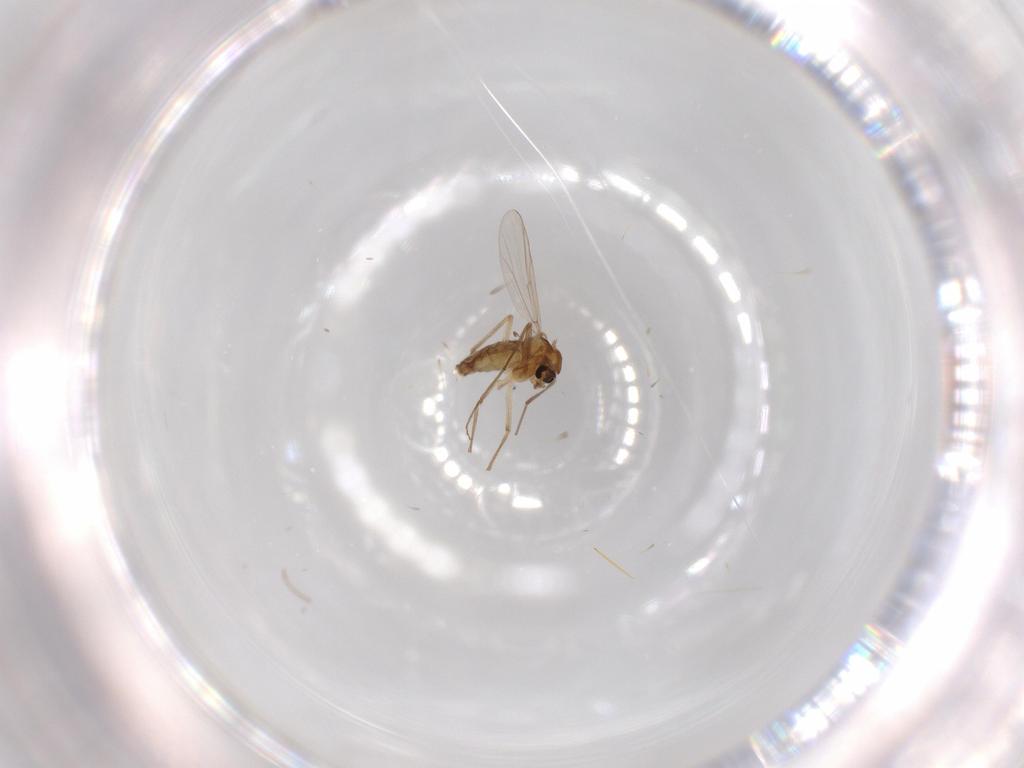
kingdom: Animalia
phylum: Arthropoda
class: Insecta
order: Diptera
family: Chironomidae
